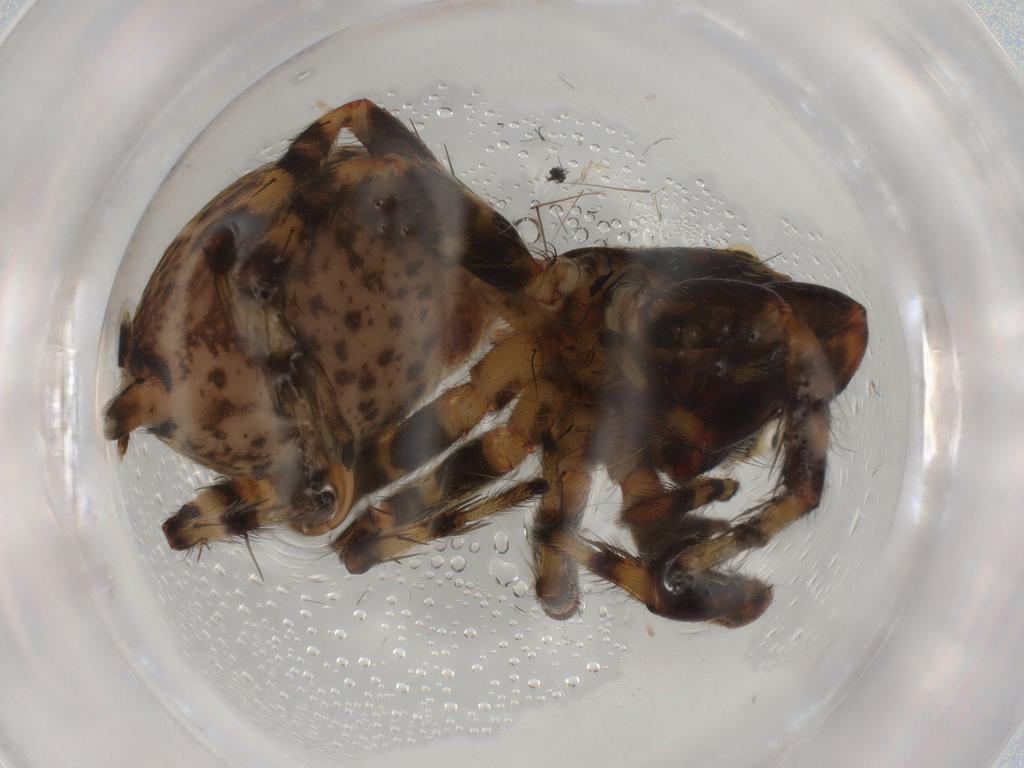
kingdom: Animalia
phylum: Arthropoda
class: Arachnida
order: Araneae
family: Salticidae
